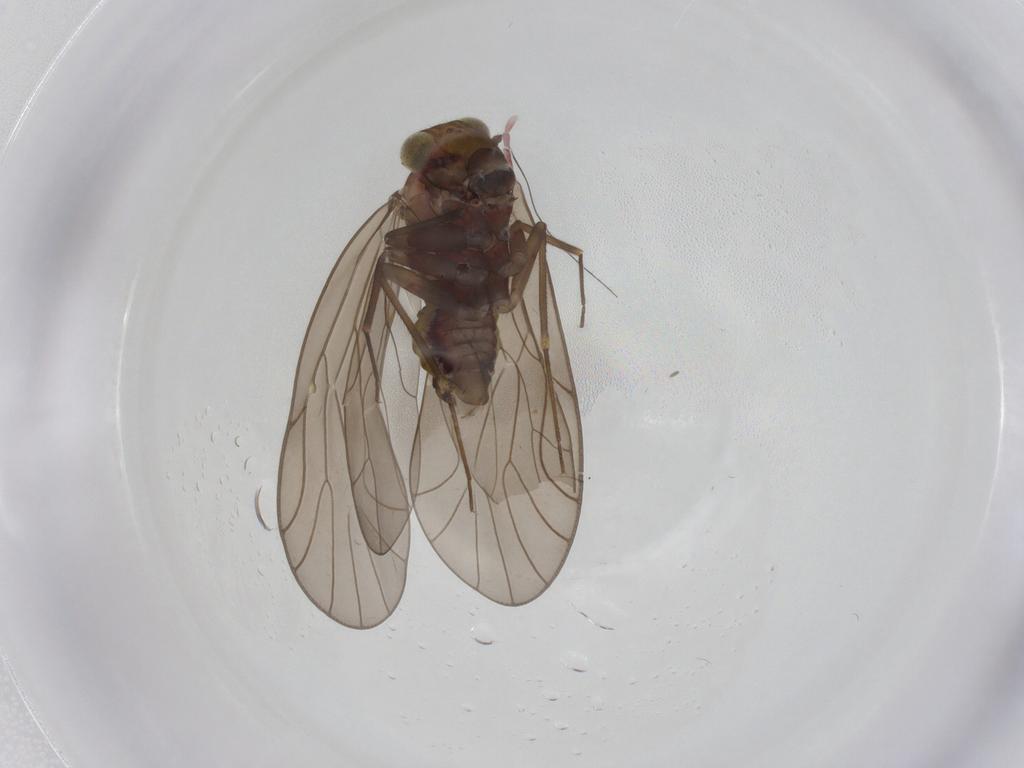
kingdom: Animalia
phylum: Arthropoda
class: Insecta
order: Psocodea
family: Philotarsidae
